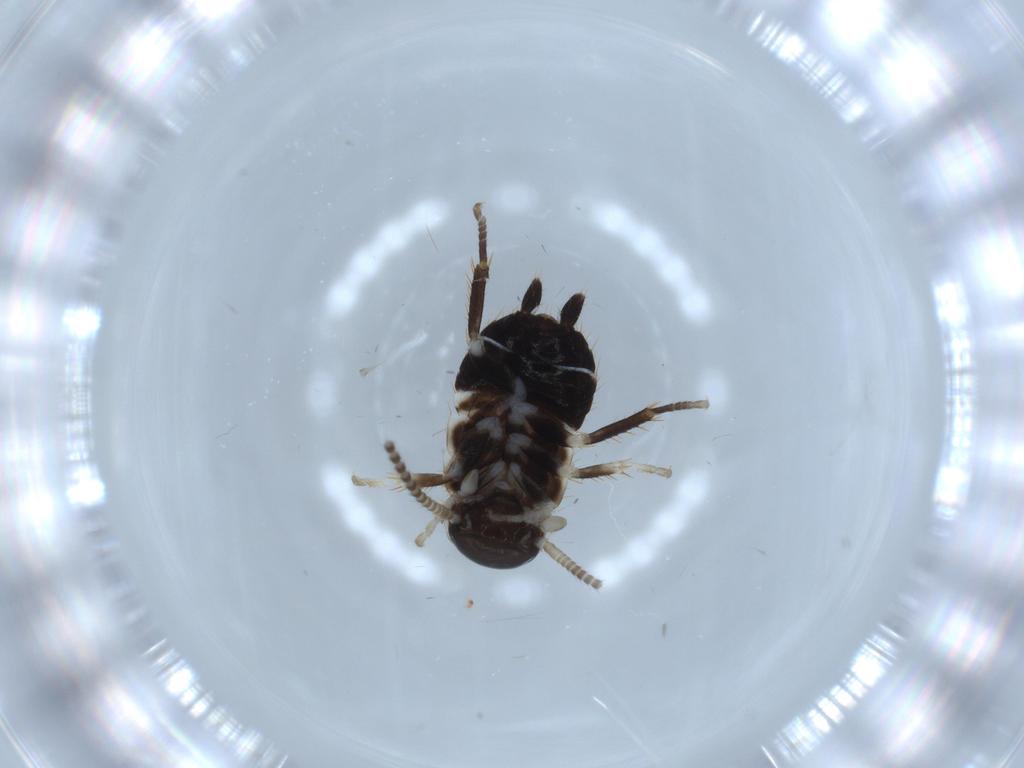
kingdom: Animalia
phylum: Arthropoda
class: Insecta
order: Blattodea
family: Ectobiidae
